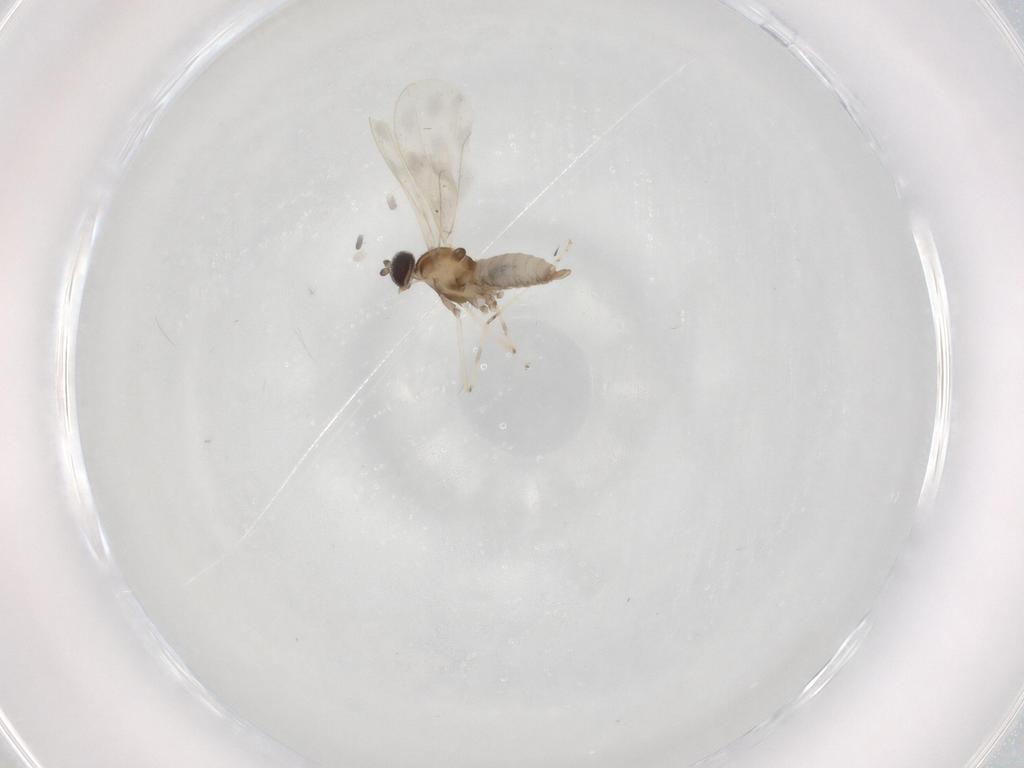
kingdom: Animalia
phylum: Arthropoda
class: Insecta
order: Diptera
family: Cecidomyiidae
